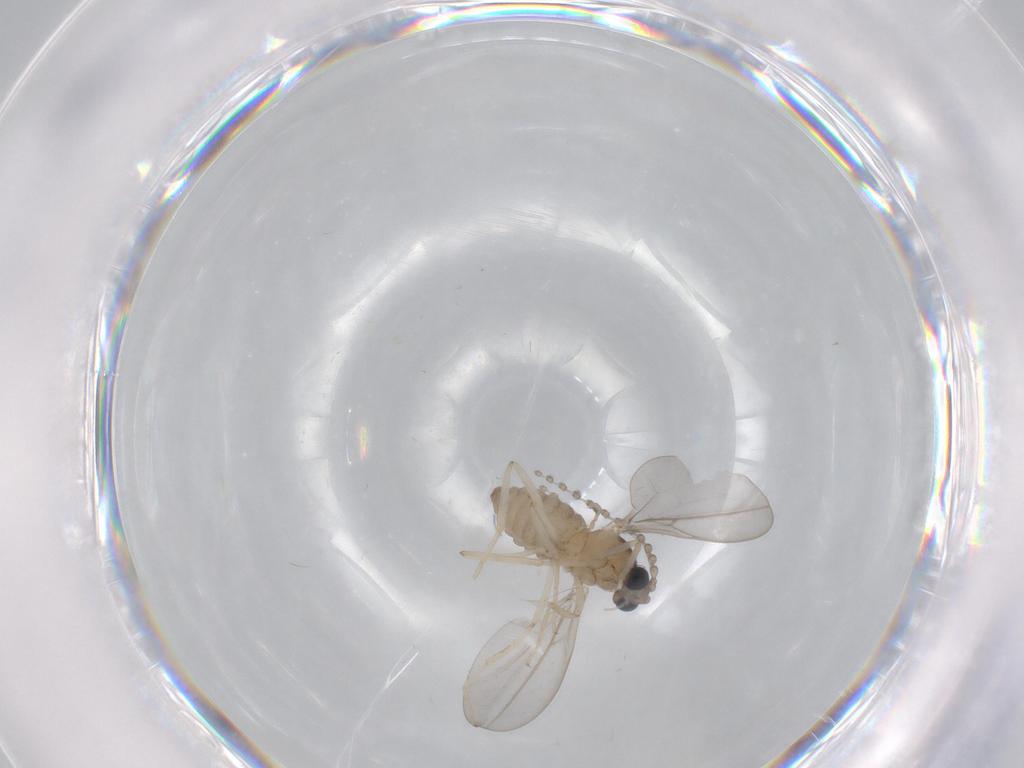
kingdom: Animalia
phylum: Arthropoda
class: Insecta
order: Diptera
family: Cecidomyiidae
